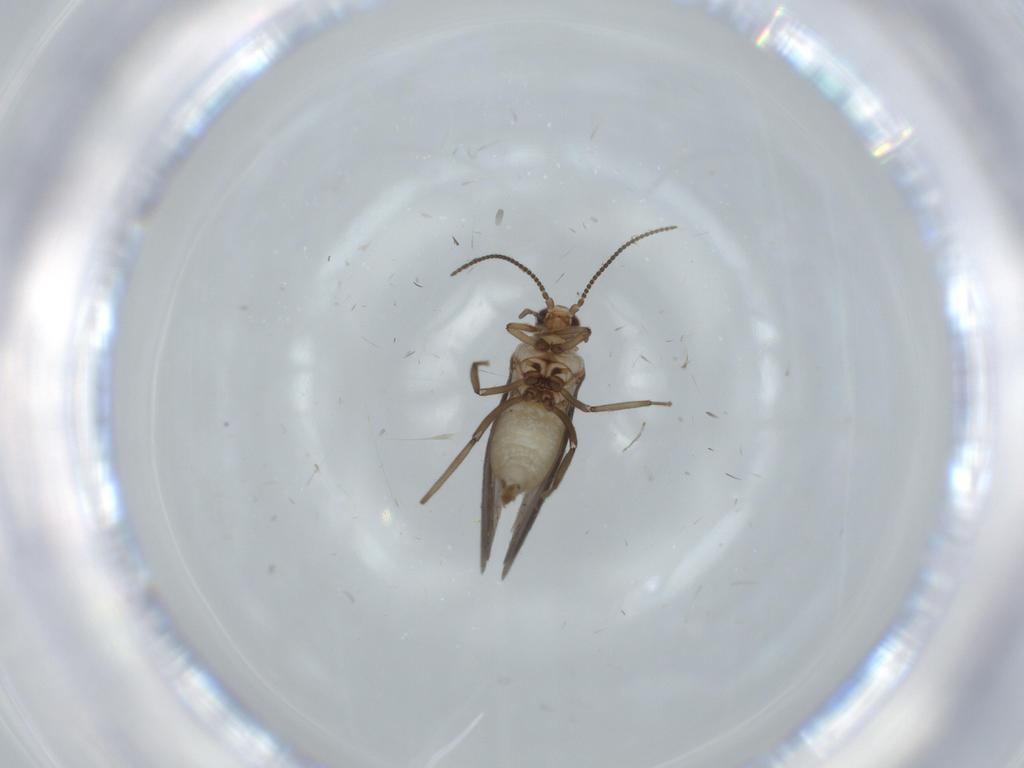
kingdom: Animalia
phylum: Arthropoda
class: Insecta
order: Neuroptera
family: Coniopterygidae
